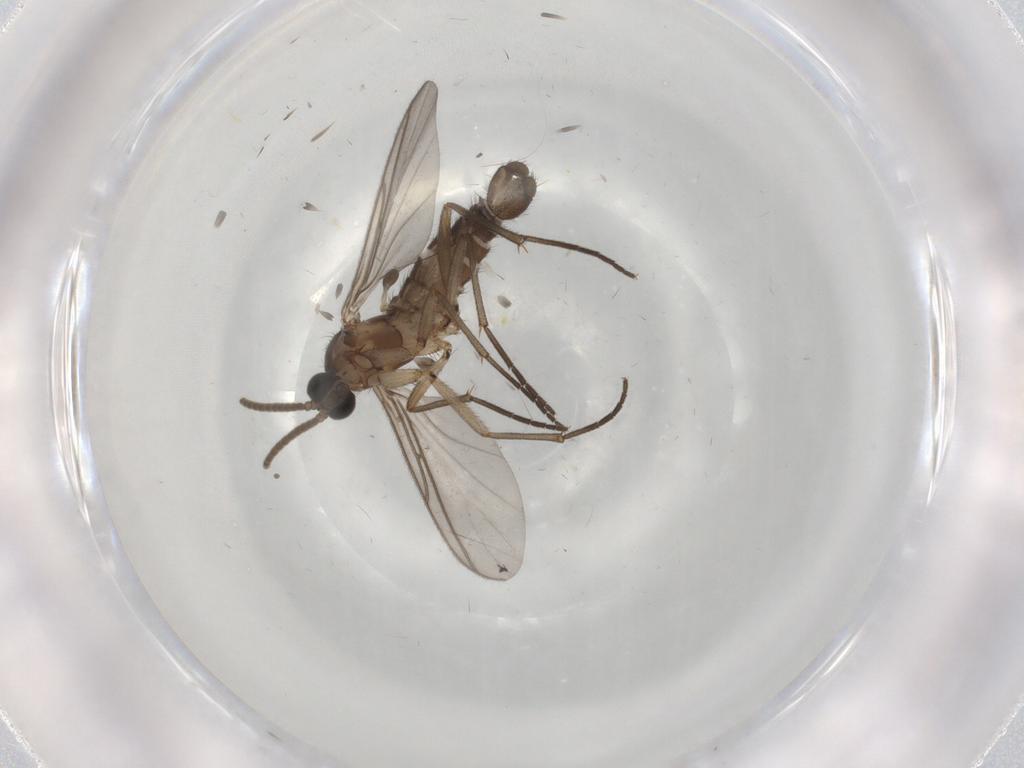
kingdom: Animalia
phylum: Arthropoda
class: Insecta
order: Diptera
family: Sciaridae
